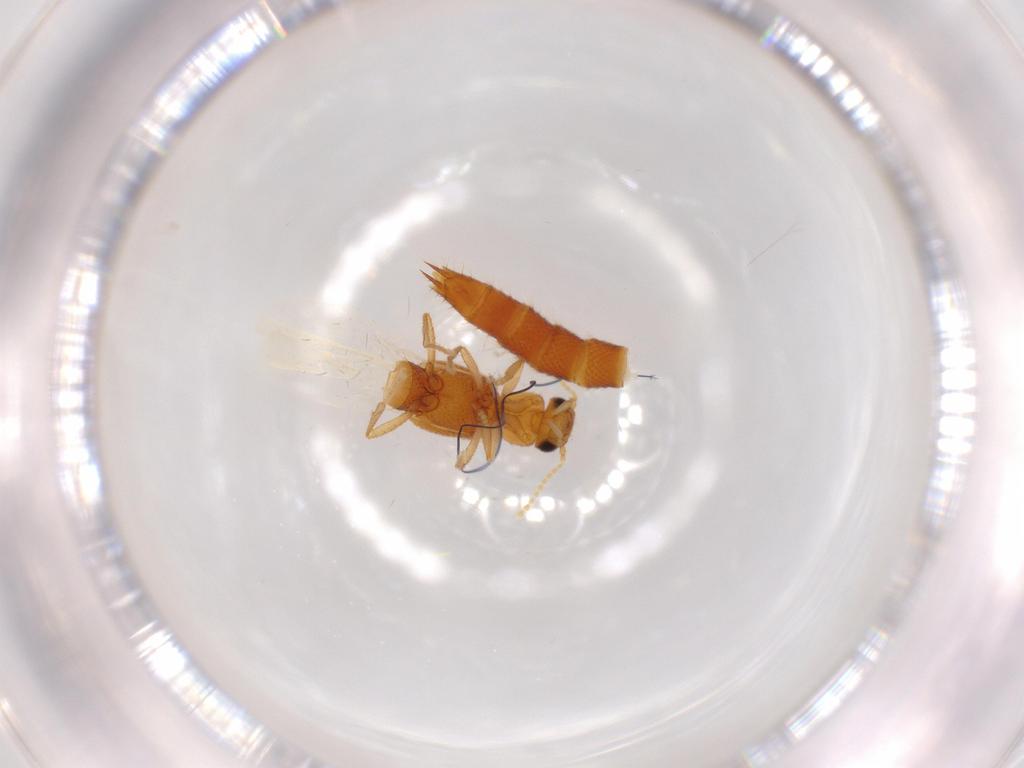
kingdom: Animalia
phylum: Arthropoda
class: Insecta
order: Coleoptera
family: Staphylinidae
